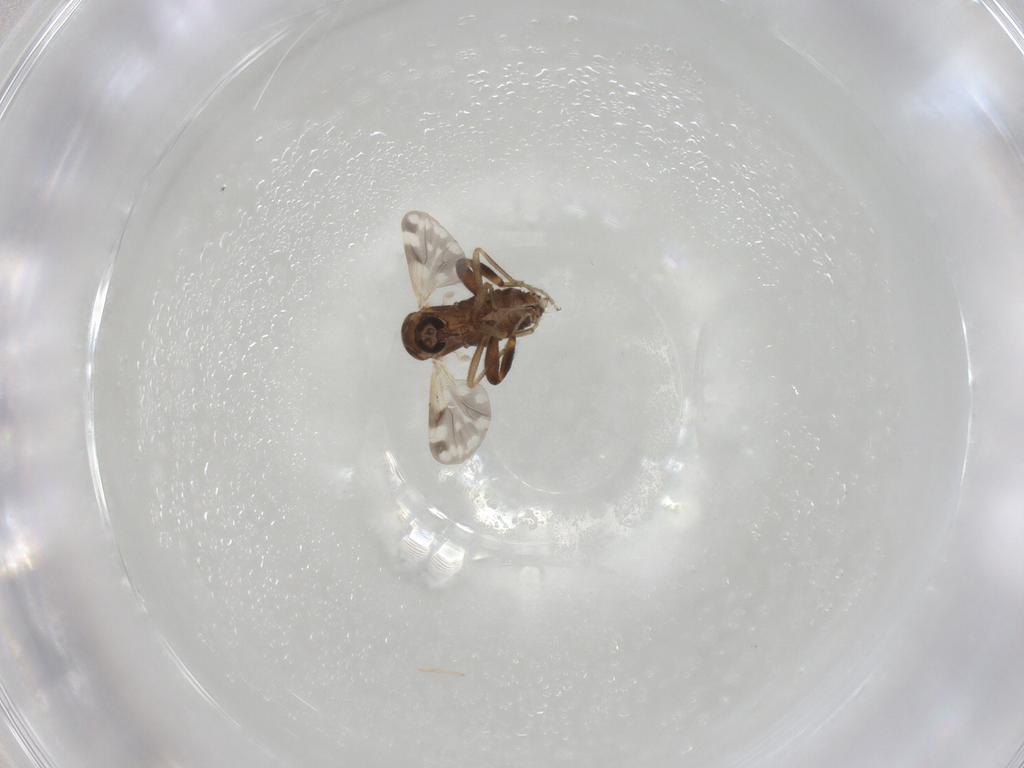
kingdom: Animalia
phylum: Arthropoda
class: Insecta
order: Diptera
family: Ceratopogonidae
